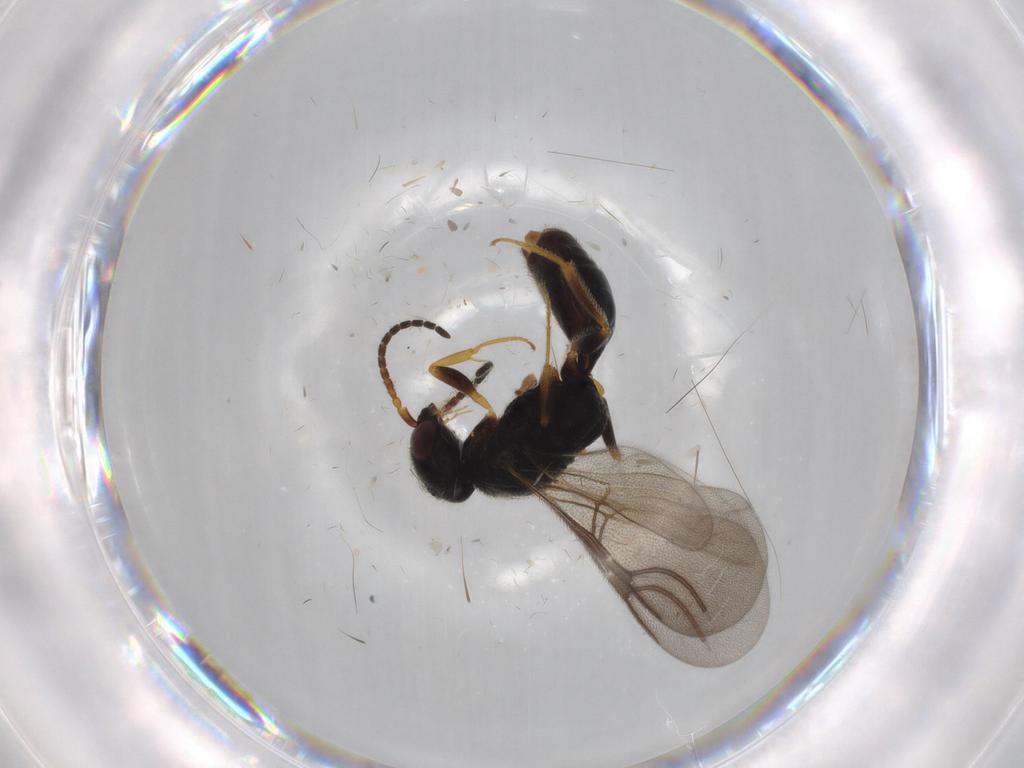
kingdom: Animalia
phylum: Arthropoda
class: Insecta
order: Hymenoptera
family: Bethylidae
